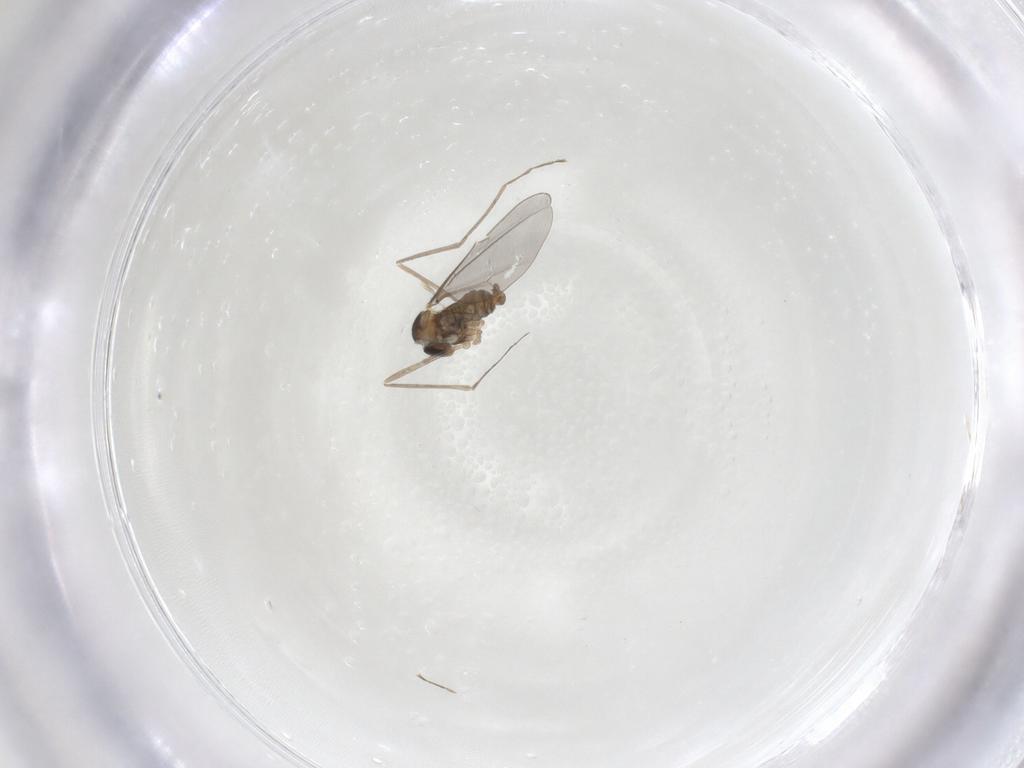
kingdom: Animalia
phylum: Arthropoda
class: Insecta
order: Diptera
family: Cecidomyiidae
